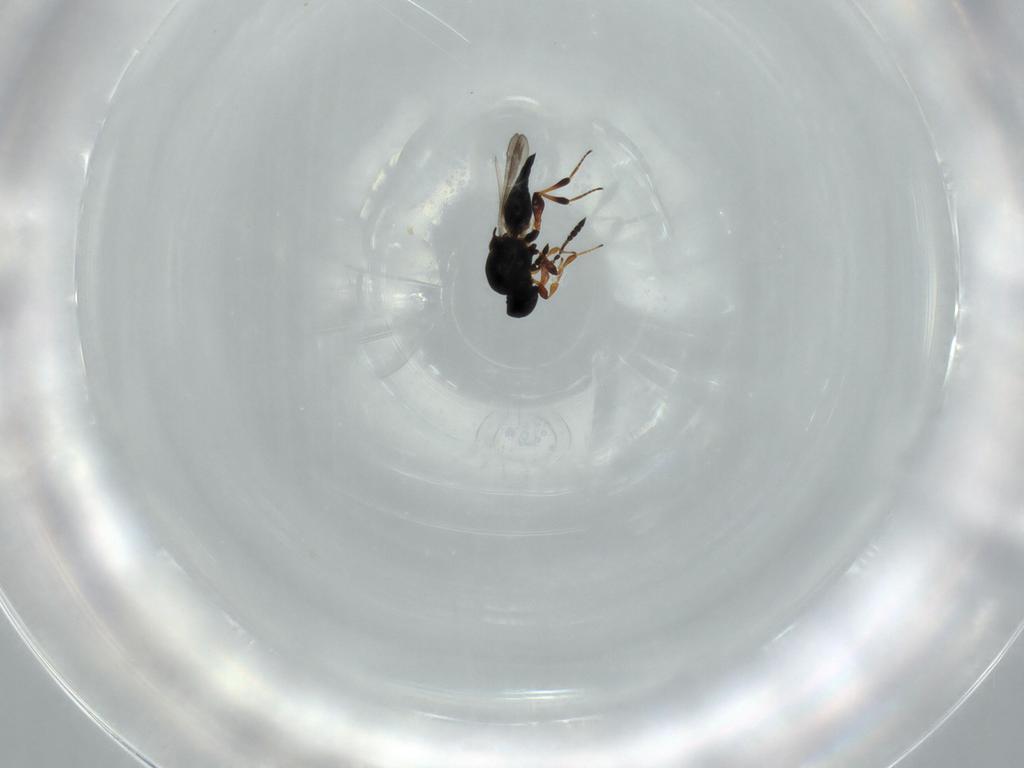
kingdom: Animalia
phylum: Arthropoda
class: Insecta
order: Hymenoptera
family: Platygastridae
